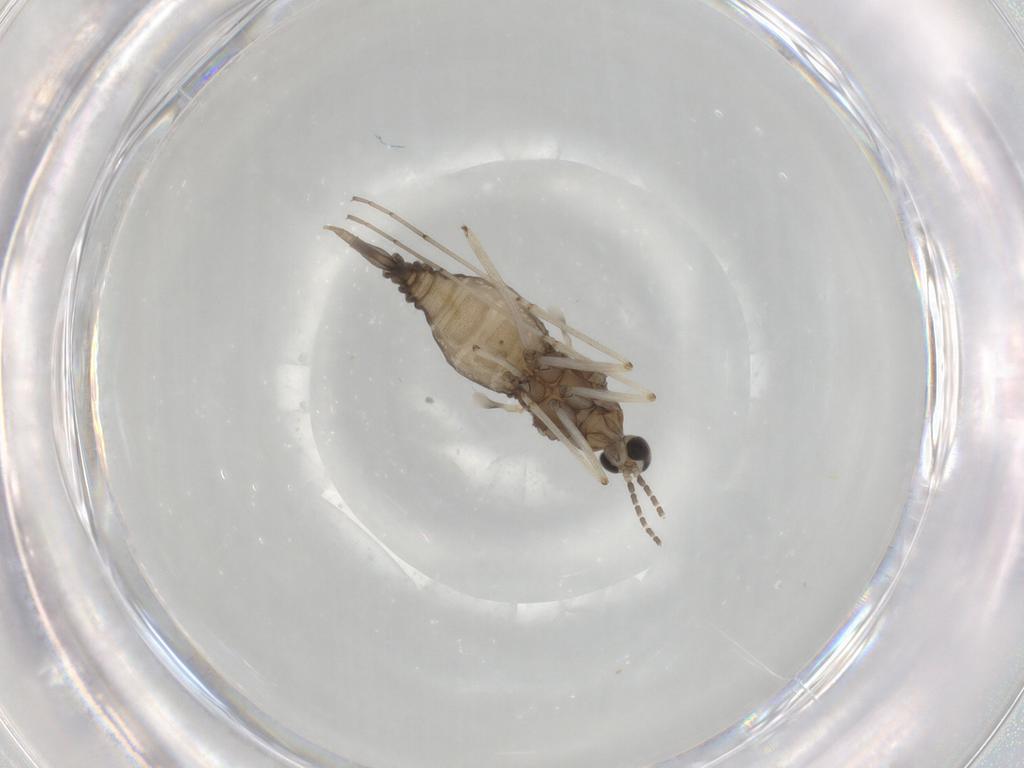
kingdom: Animalia
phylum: Arthropoda
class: Insecta
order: Diptera
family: Cecidomyiidae
